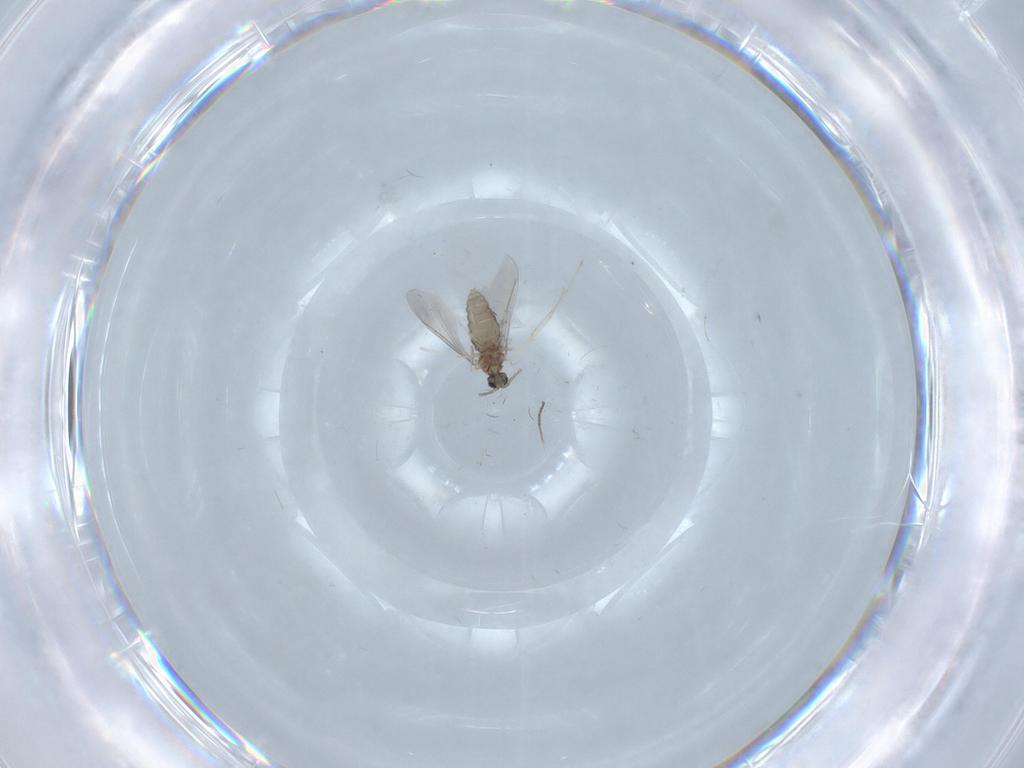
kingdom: Animalia
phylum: Arthropoda
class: Insecta
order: Diptera
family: Cecidomyiidae
